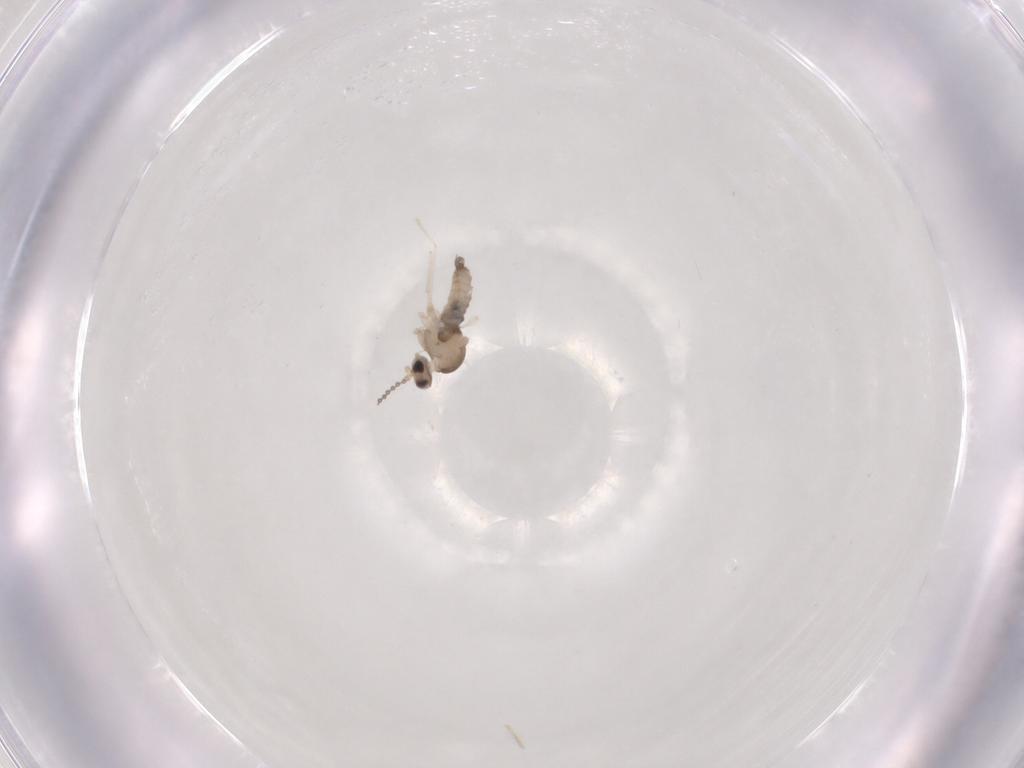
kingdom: Animalia
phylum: Arthropoda
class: Insecta
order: Diptera
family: Cecidomyiidae
